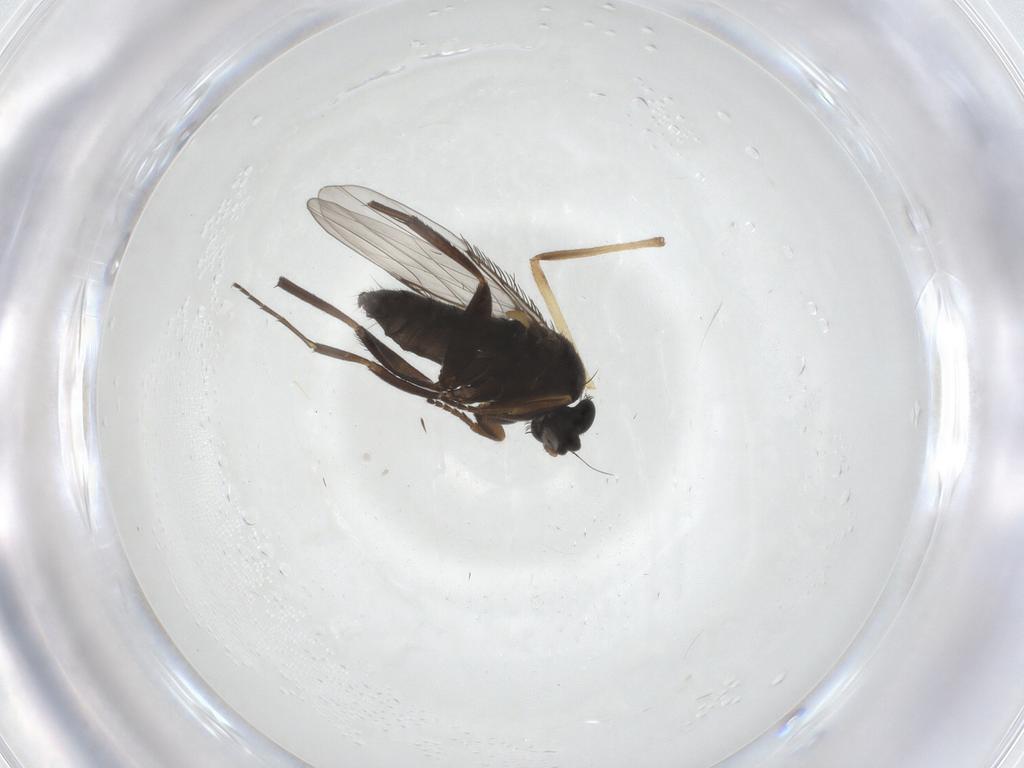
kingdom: Animalia
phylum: Arthropoda
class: Insecta
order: Diptera
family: Phoridae
